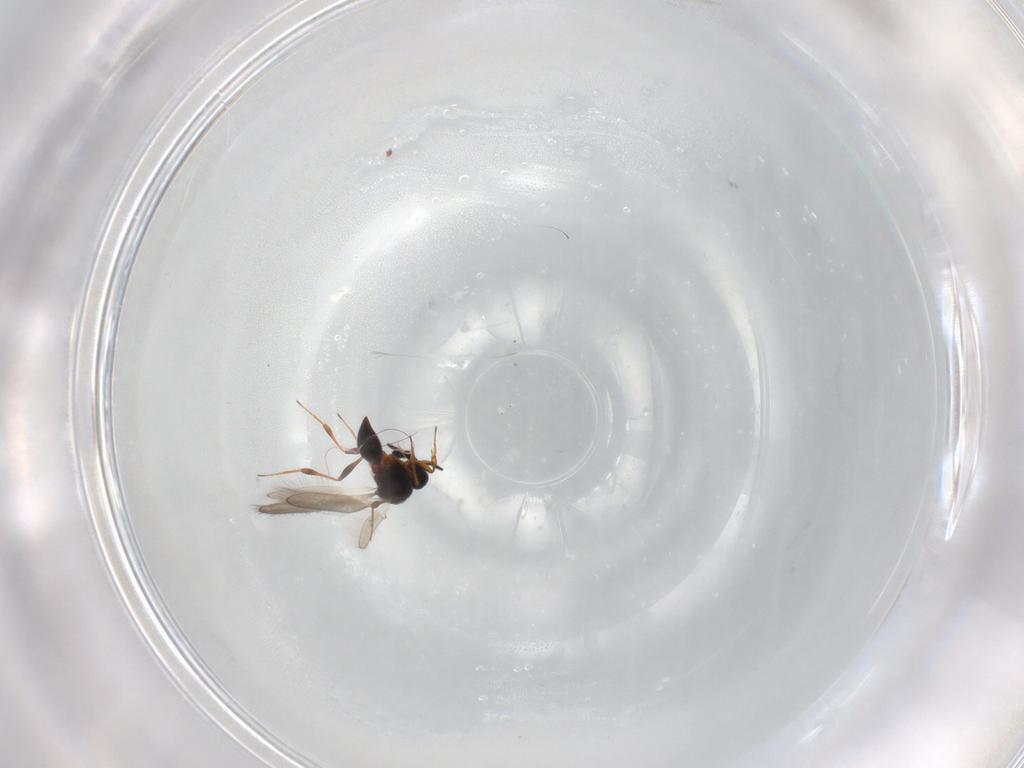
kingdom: Animalia
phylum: Arthropoda
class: Insecta
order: Hymenoptera
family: Platygastridae
